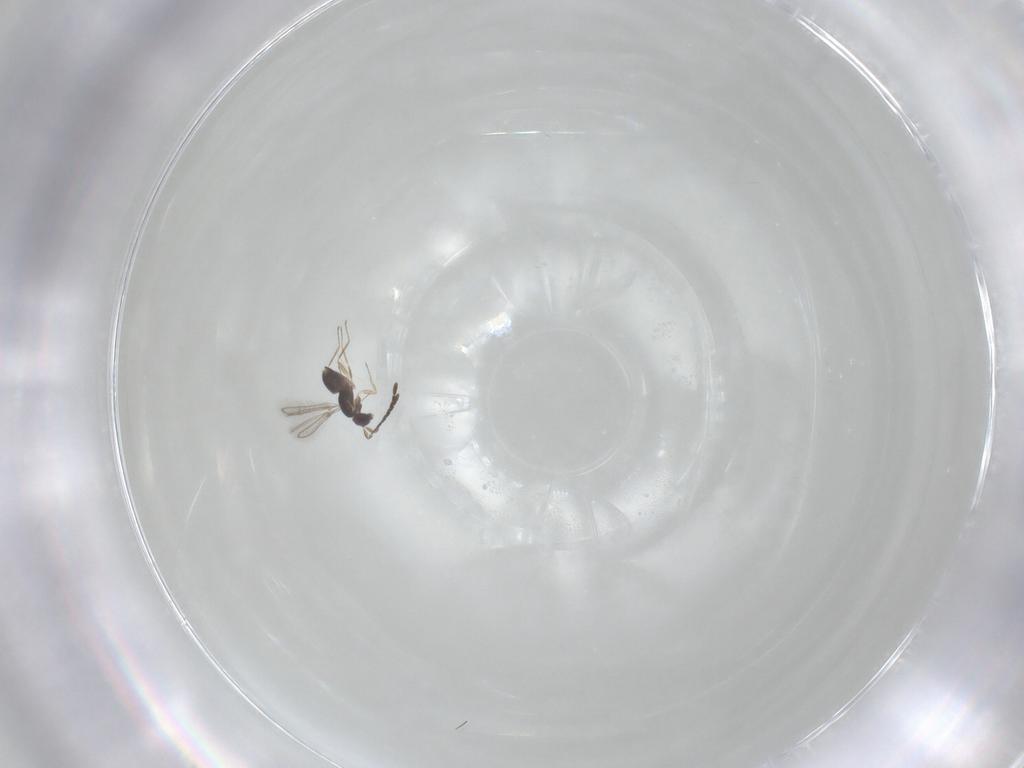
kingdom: Animalia
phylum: Arthropoda
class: Insecta
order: Hymenoptera
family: Mymaridae
